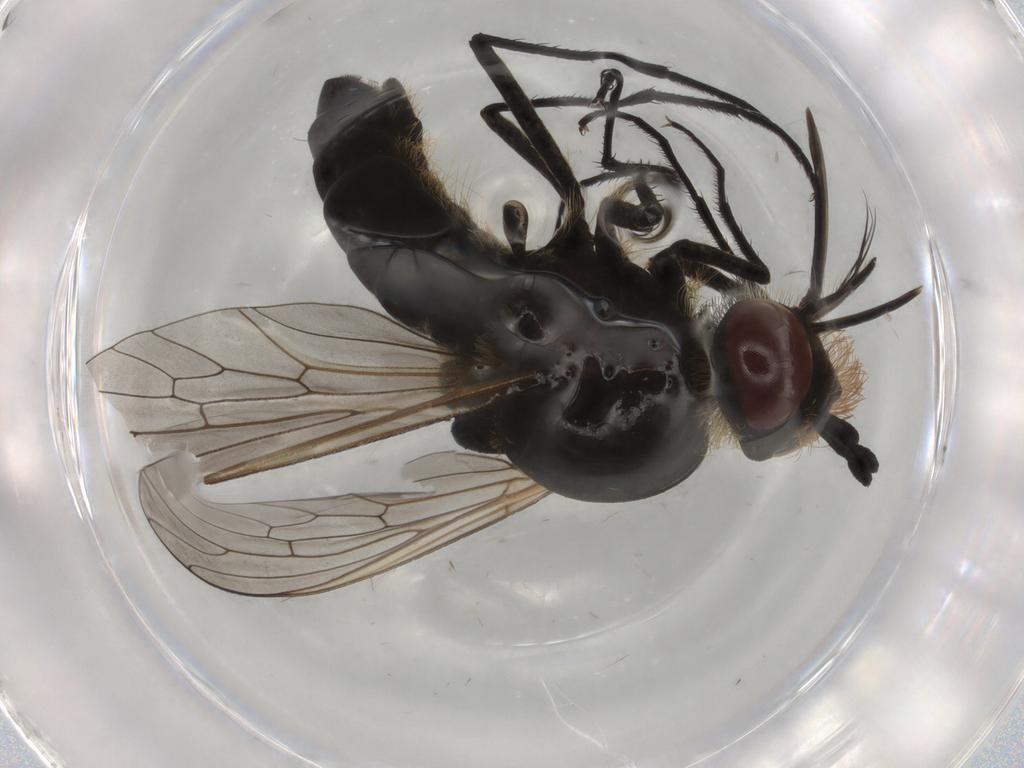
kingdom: Animalia
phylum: Arthropoda
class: Insecta
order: Diptera
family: Bombyliidae
